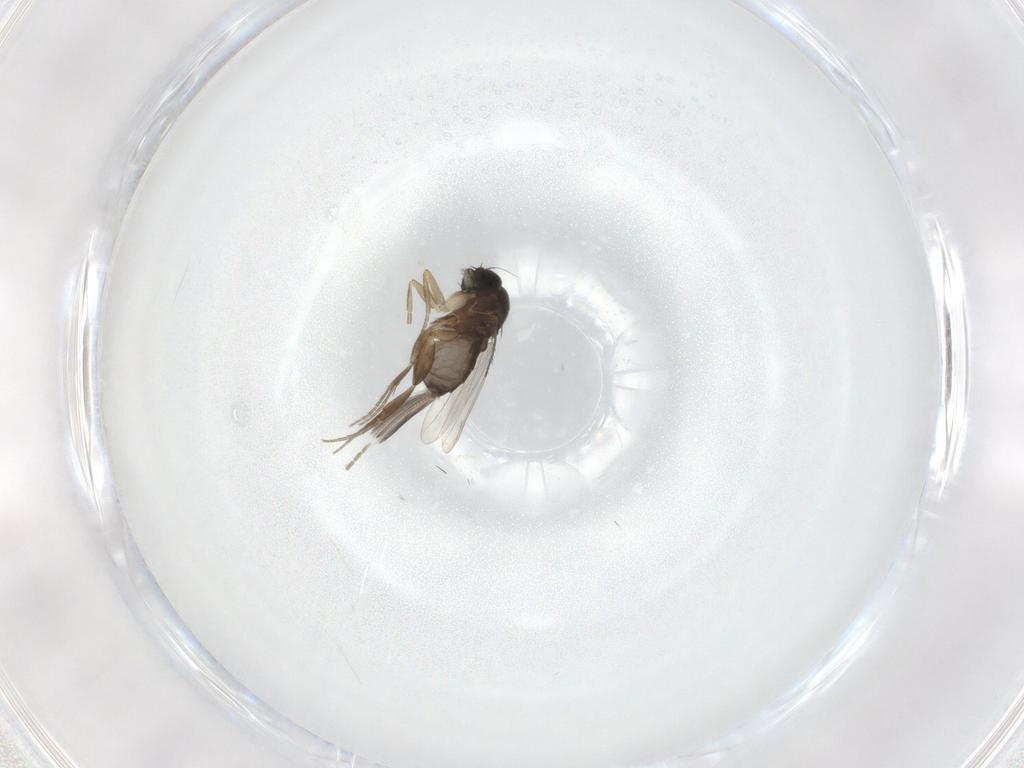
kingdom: Animalia
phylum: Arthropoda
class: Insecta
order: Diptera
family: Phoridae
